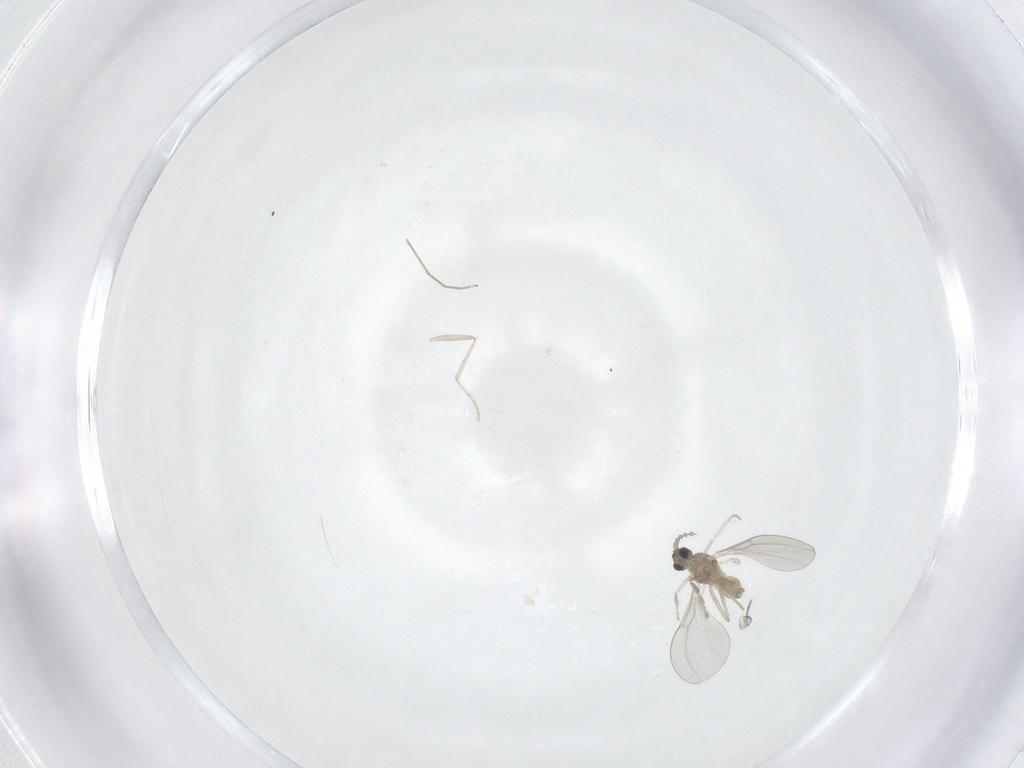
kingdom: Animalia
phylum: Arthropoda
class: Insecta
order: Diptera
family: Cecidomyiidae
